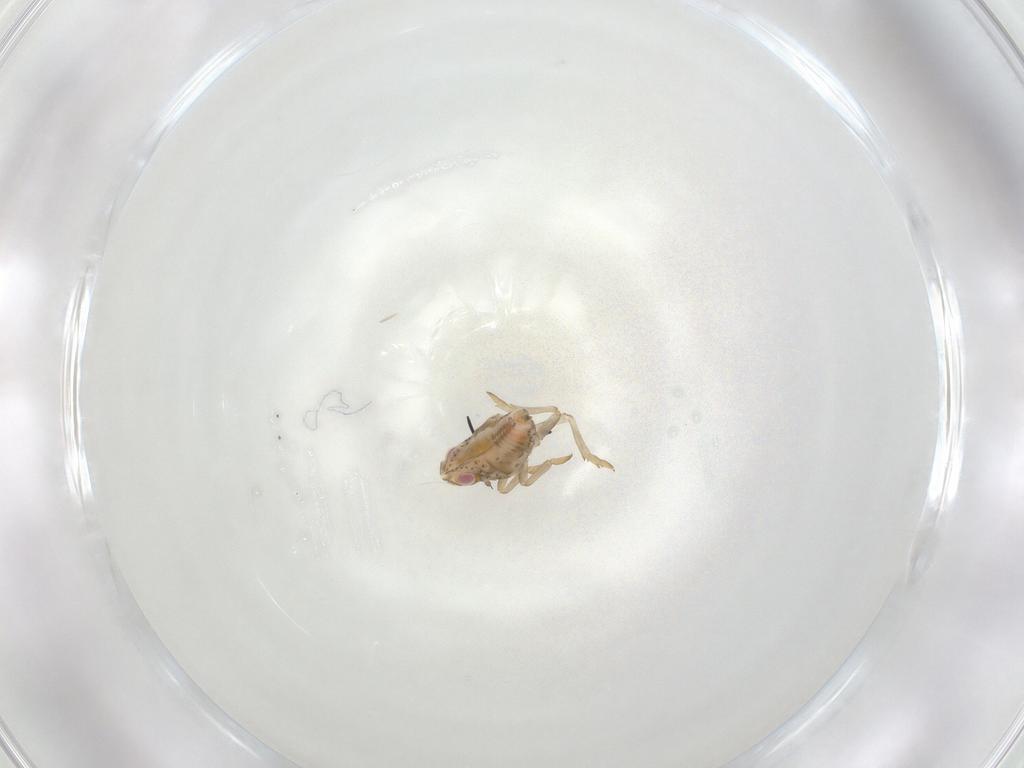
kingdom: Animalia
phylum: Arthropoda
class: Insecta
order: Hemiptera
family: Tropiduchidae
